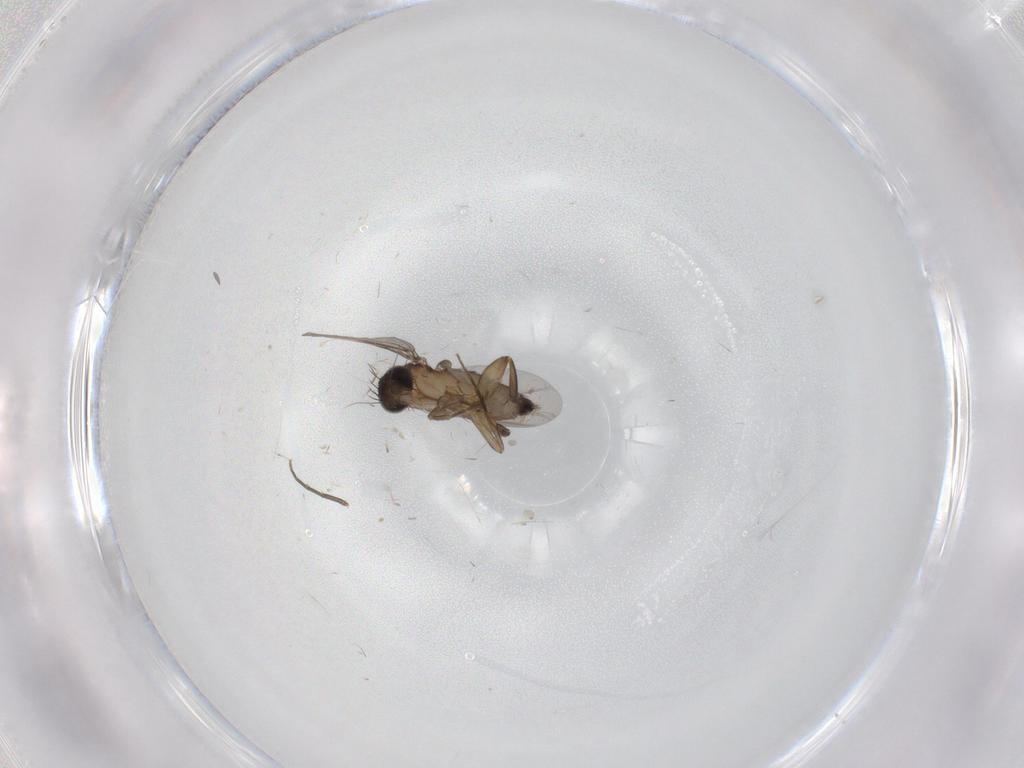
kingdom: Animalia
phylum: Arthropoda
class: Insecta
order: Diptera
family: Phoridae
